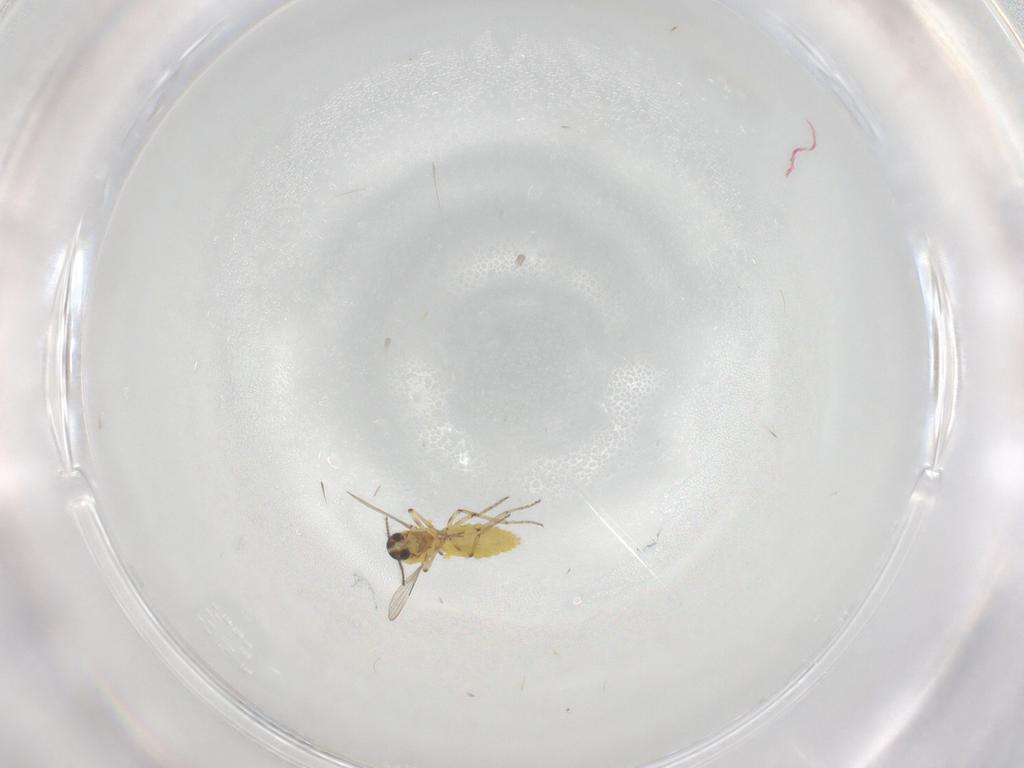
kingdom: Animalia
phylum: Arthropoda
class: Insecta
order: Diptera
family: Ceratopogonidae
